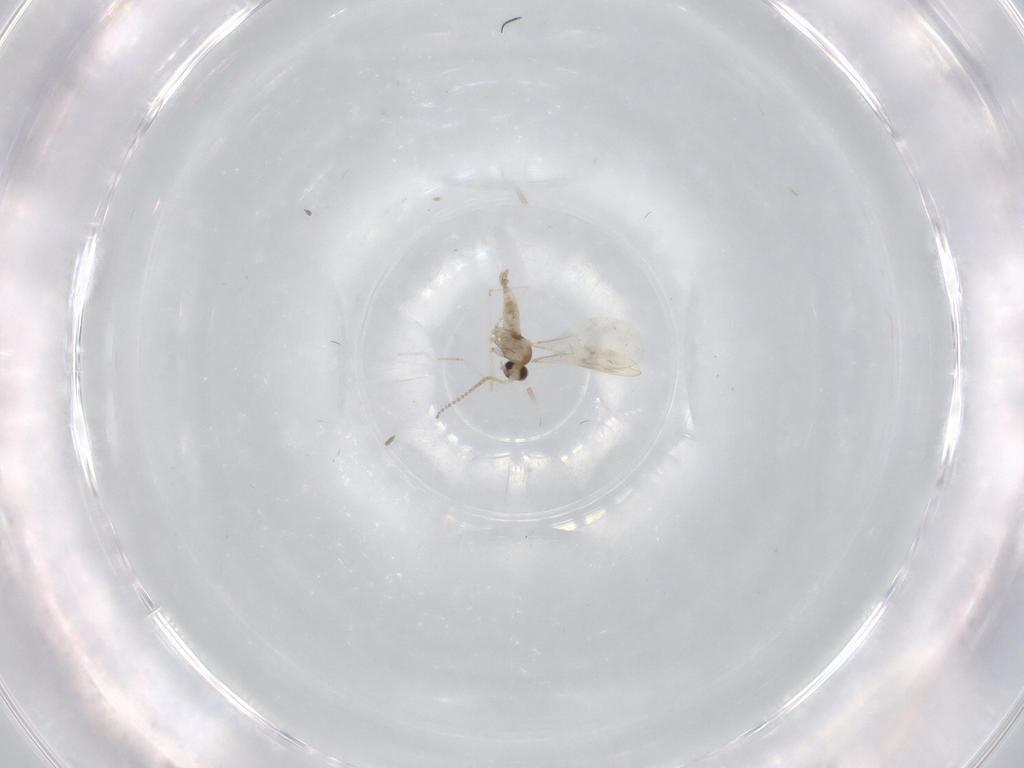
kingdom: Animalia
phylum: Arthropoda
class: Insecta
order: Diptera
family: Cecidomyiidae
